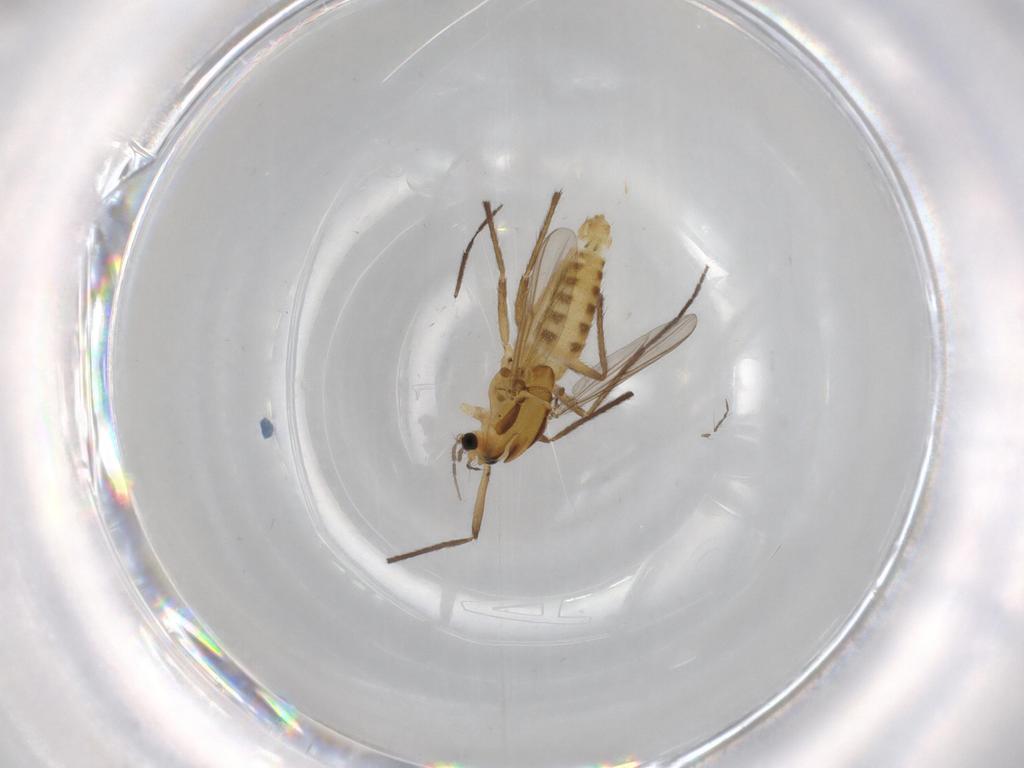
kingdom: Animalia
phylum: Arthropoda
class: Insecta
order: Diptera
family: Chironomidae
